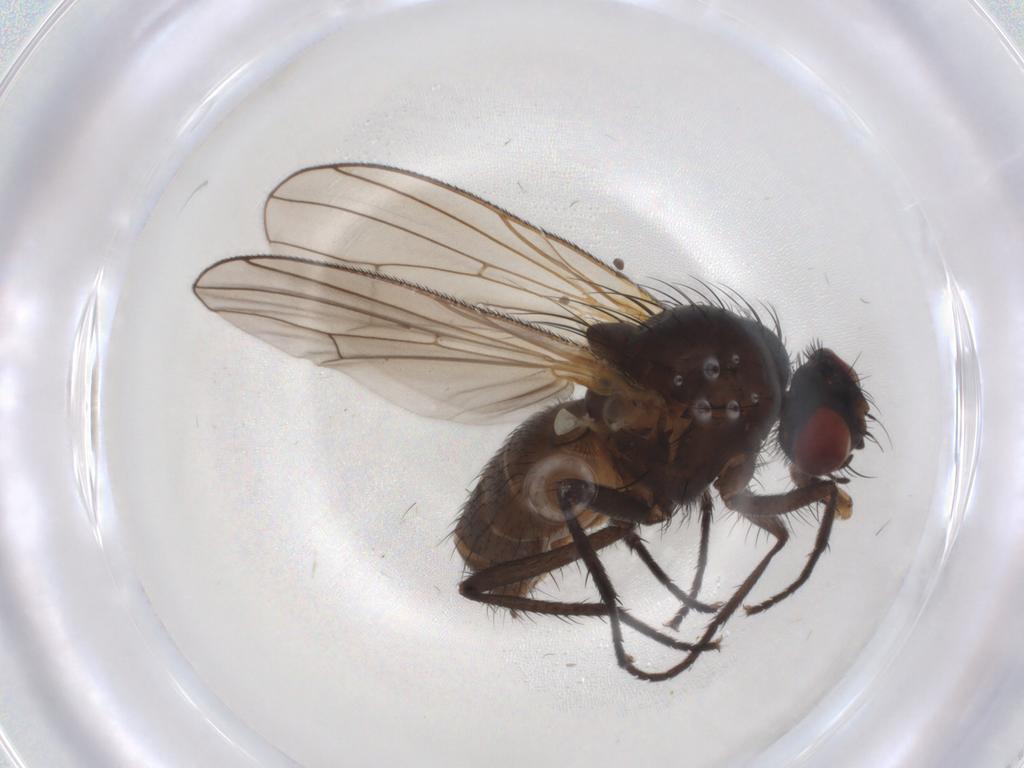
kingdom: Animalia
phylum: Arthropoda
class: Insecta
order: Diptera
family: Anthomyiidae
